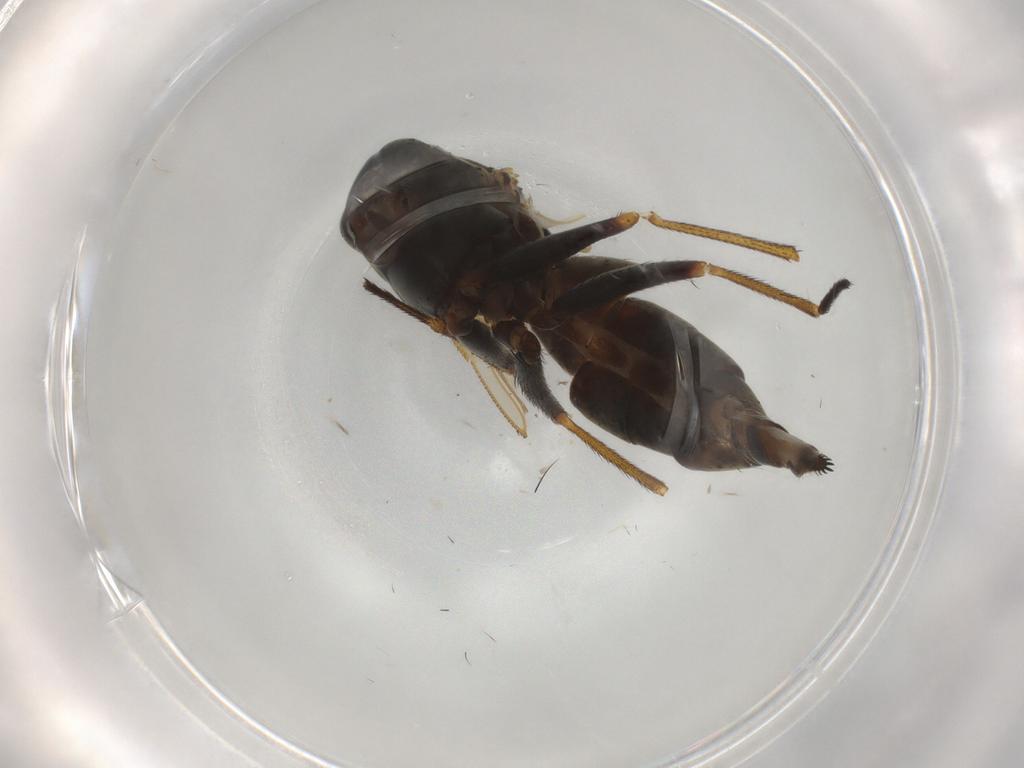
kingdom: Animalia
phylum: Arthropoda
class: Insecta
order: Diptera
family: Muscidae
